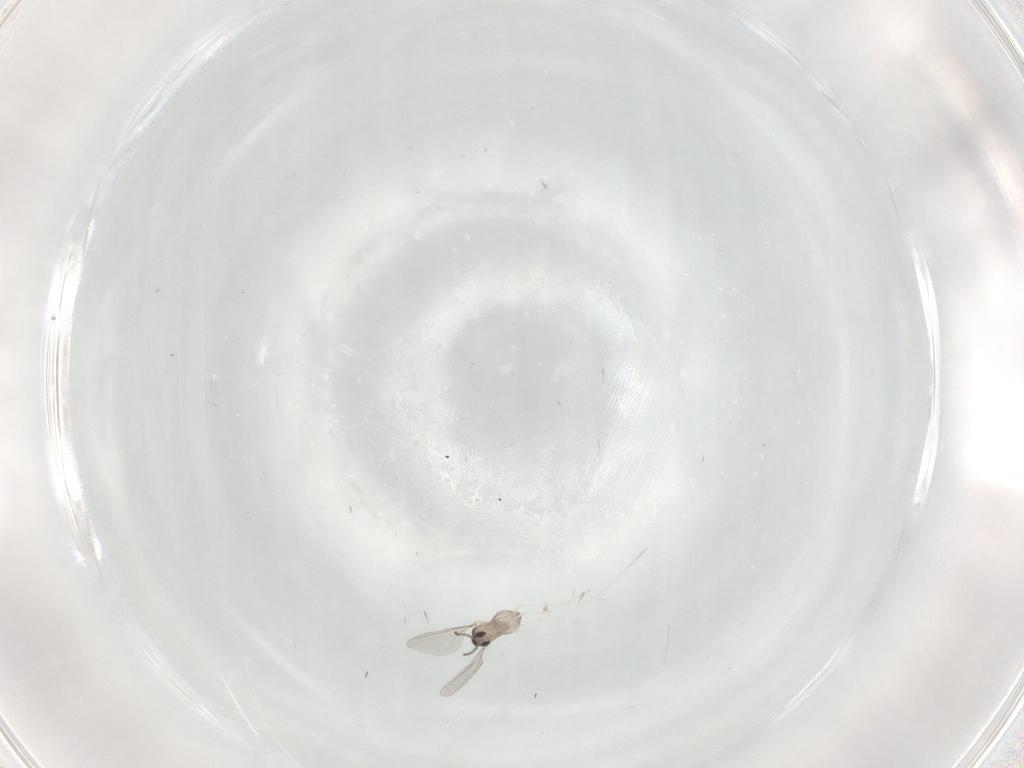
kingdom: Animalia
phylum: Arthropoda
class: Insecta
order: Diptera
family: Cecidomyiidae
